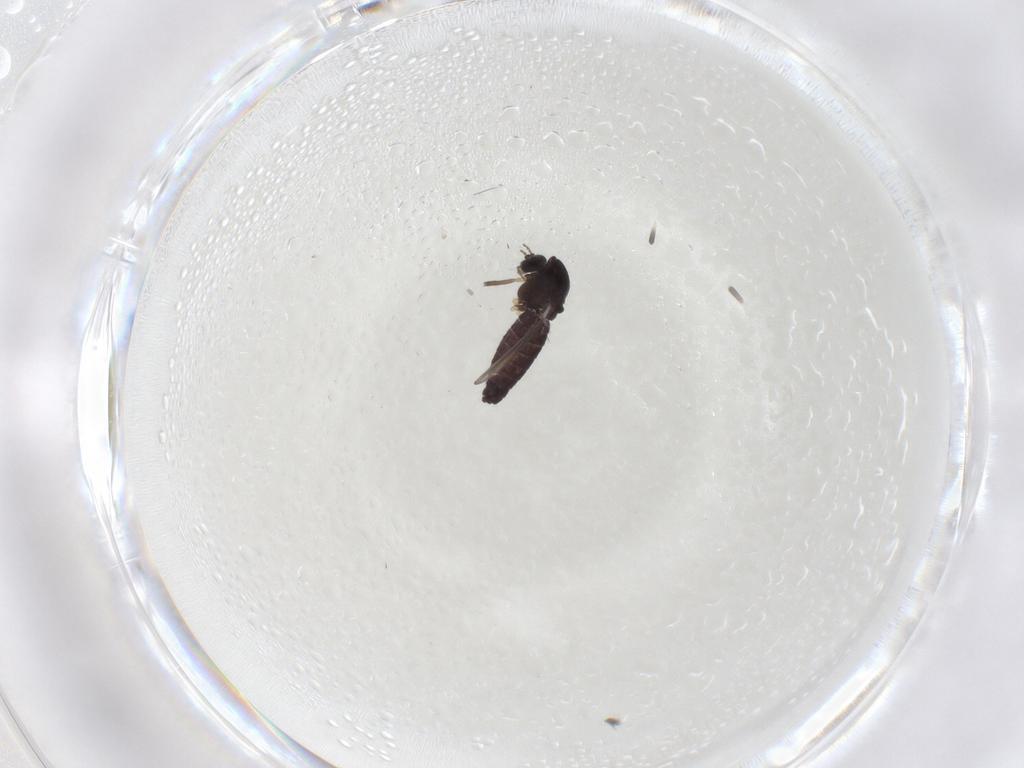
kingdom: Animalia
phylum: Arthropoda
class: Insecta
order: Diptera
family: Chironomidae
